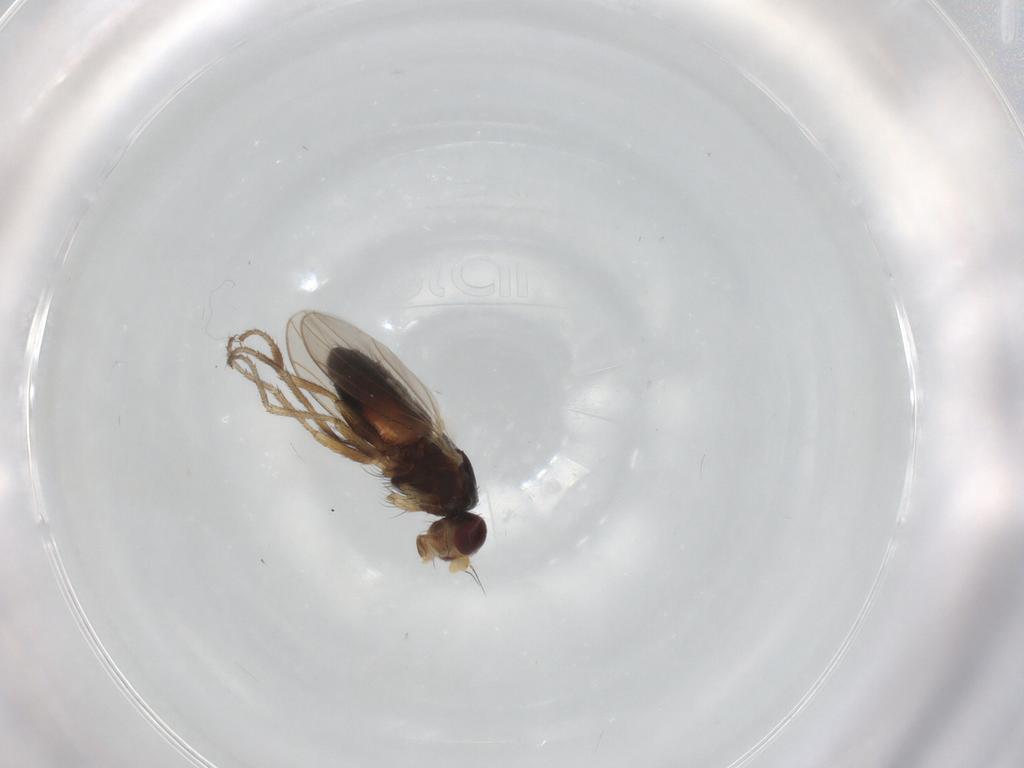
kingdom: Animalia
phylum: Arthropoda
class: Insecta
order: Diptera
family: Heleomyzidae
